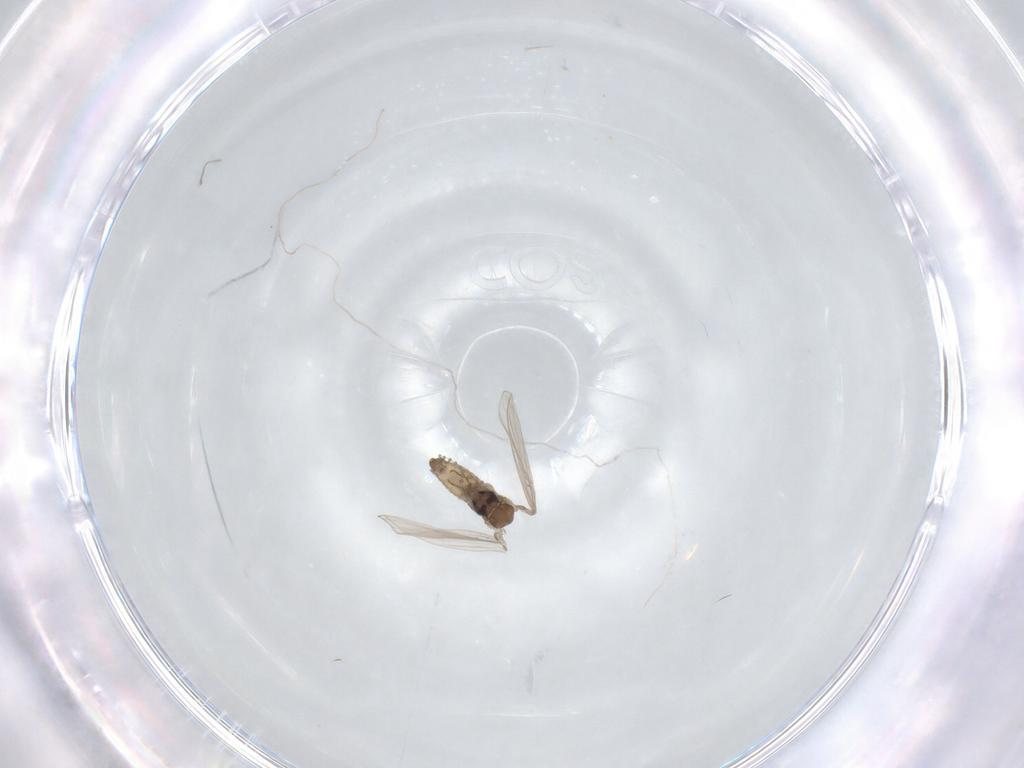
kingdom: Animalia
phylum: Arthropoda
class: Insecta
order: Diptera
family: Psychodidae
